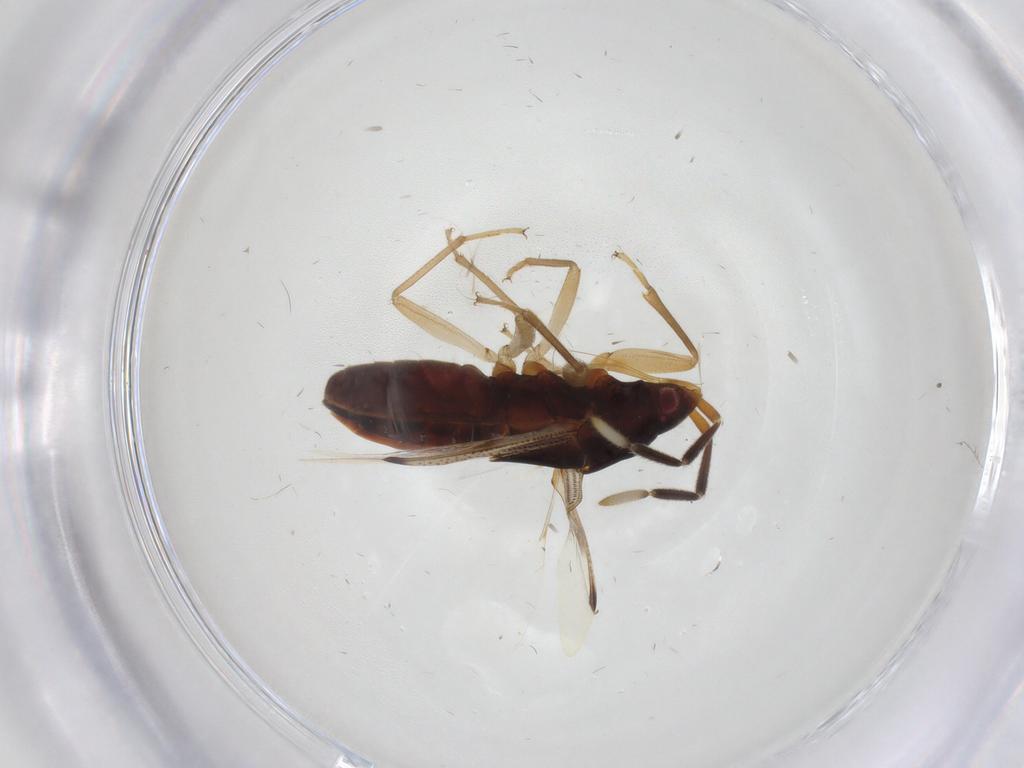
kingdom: Animalia
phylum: Arthropoda
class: Insecta
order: Hemiptera
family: Rhyparochromidae
